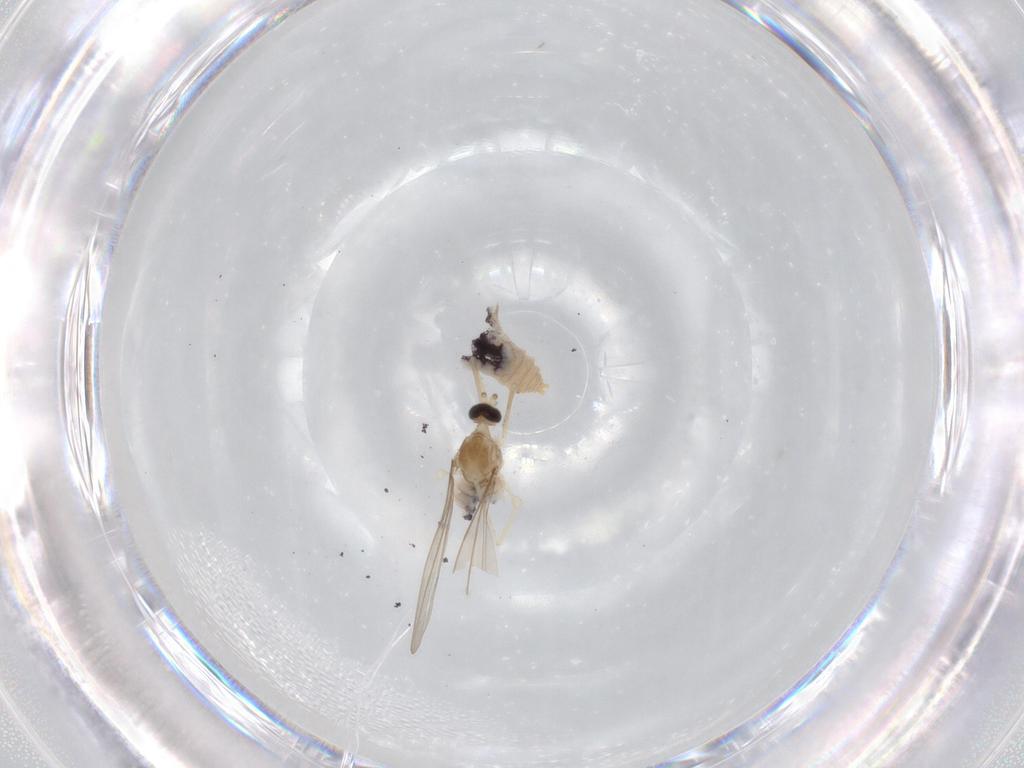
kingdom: Animalia
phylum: Arthropoda
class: Insecta
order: Diptera
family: Cecidomyiidae
